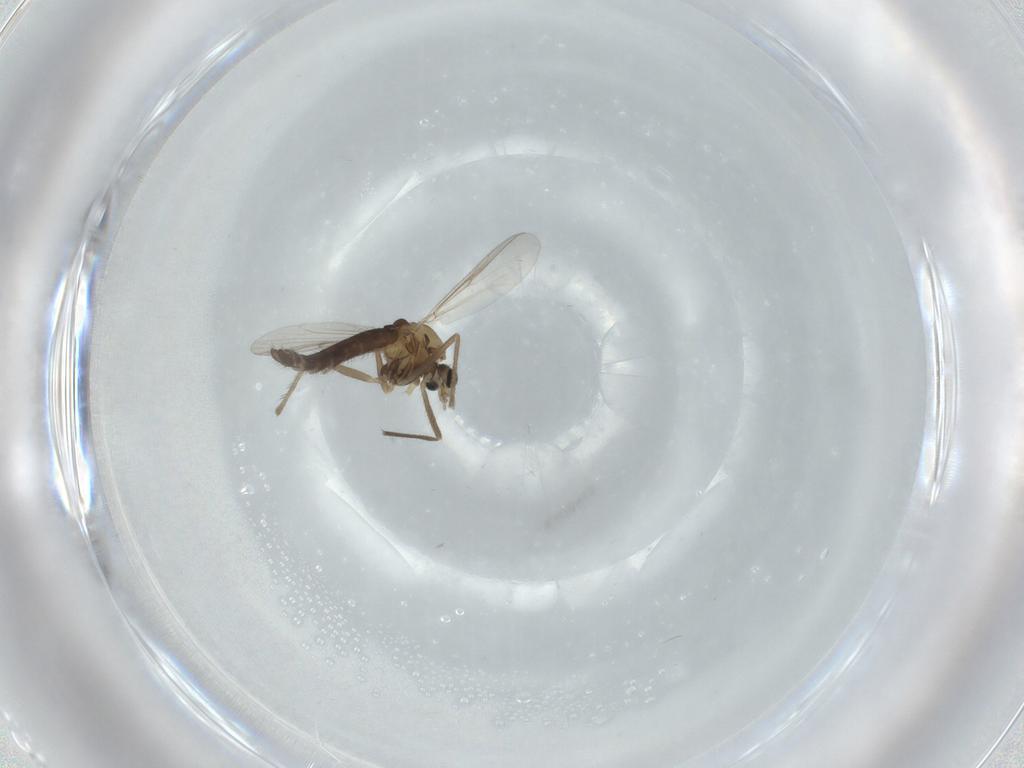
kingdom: Animalia
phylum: Arthropoda
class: Insecta
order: Diptera
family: Chironomidae
